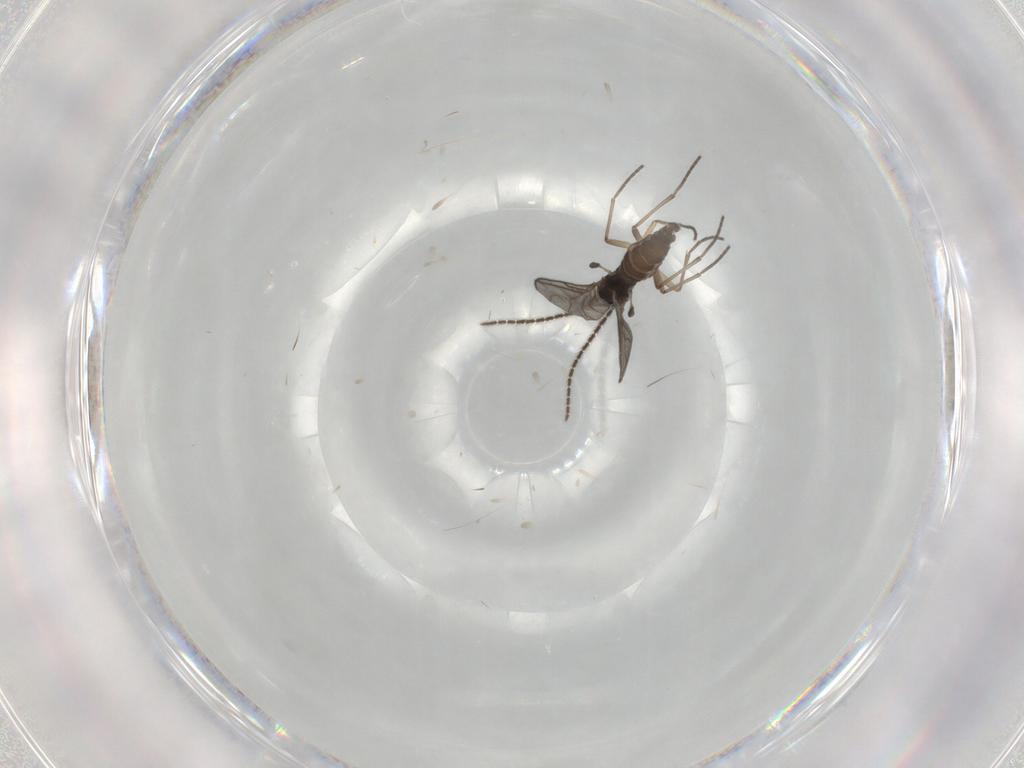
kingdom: Animalia
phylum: Arthropoda
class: Insecta
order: Diptera
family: Sciaridae
